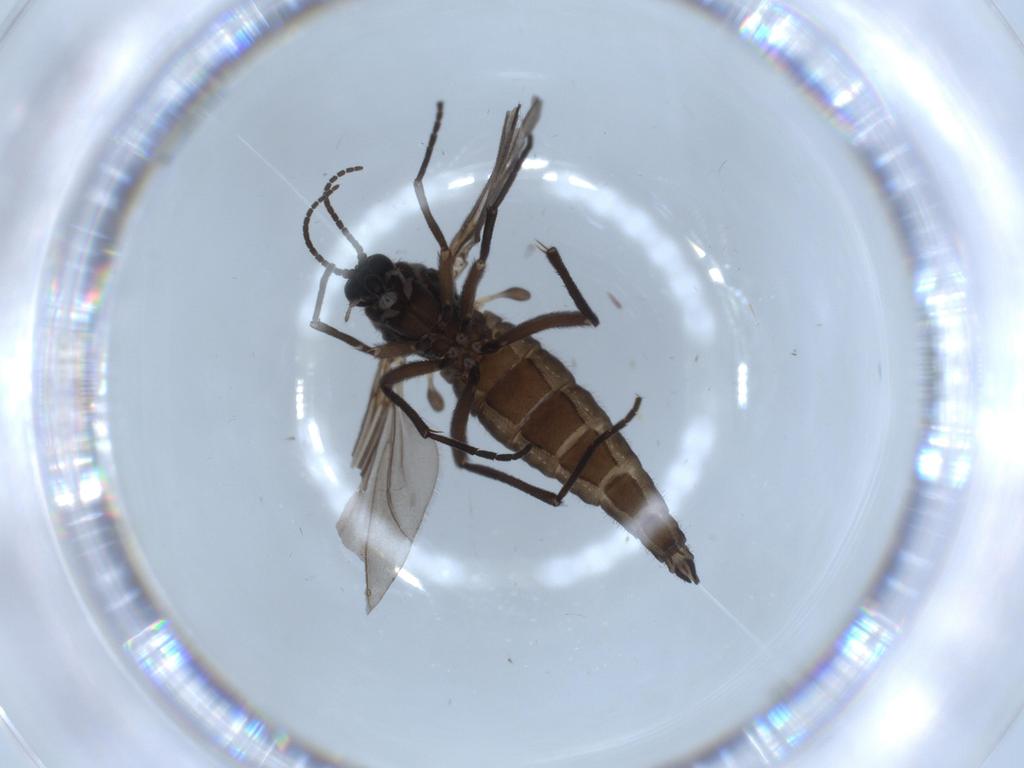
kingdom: Animalia
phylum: Arthropoda
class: Insecta
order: Diptera
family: Sciaridae
